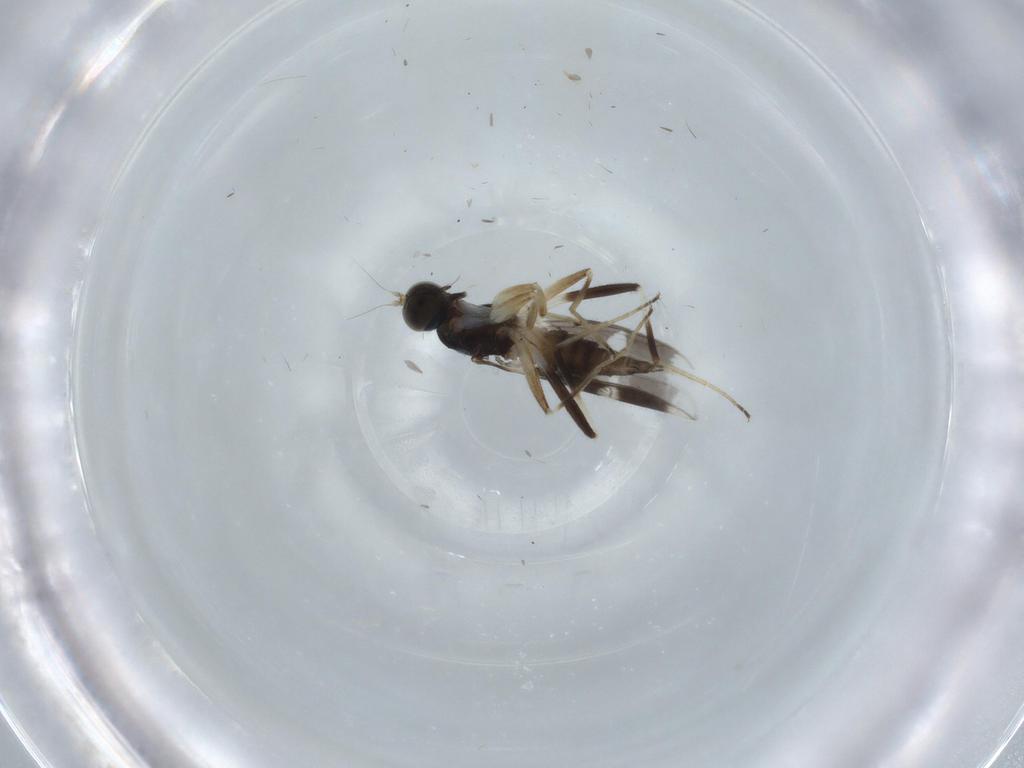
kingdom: Animalia
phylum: Arthropoda
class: Insecta
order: Diptera
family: Hybotidae
